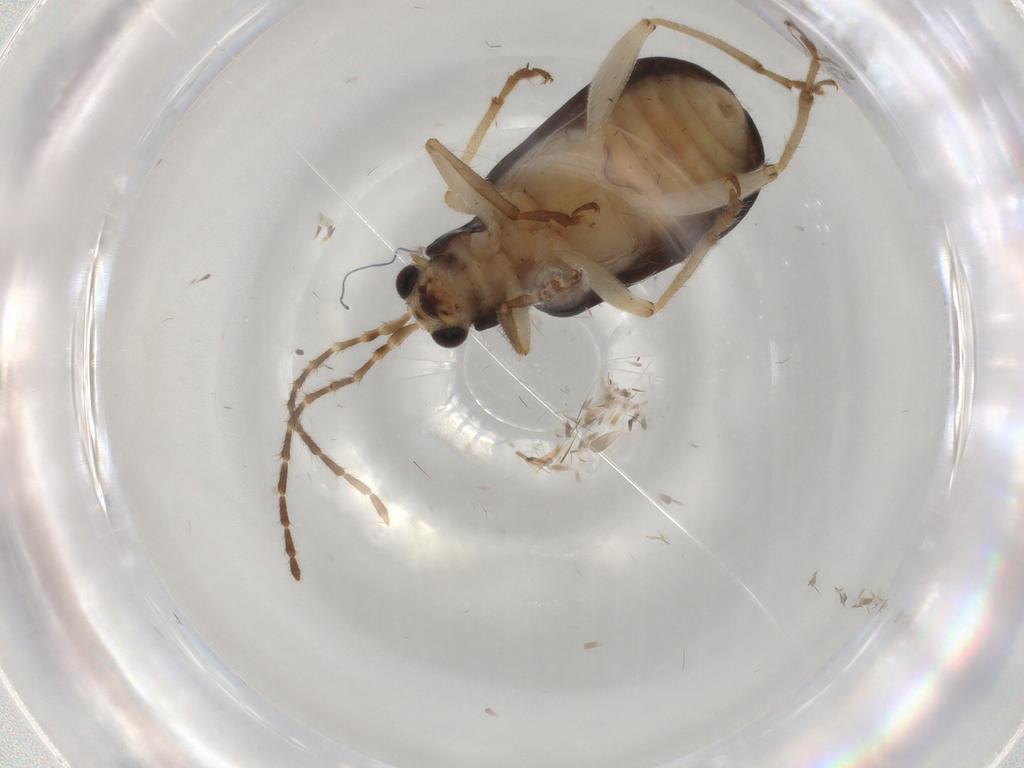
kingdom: Animalia
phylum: Arthropoda
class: Insecta
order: Coleoptera
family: Chrysomelidae
